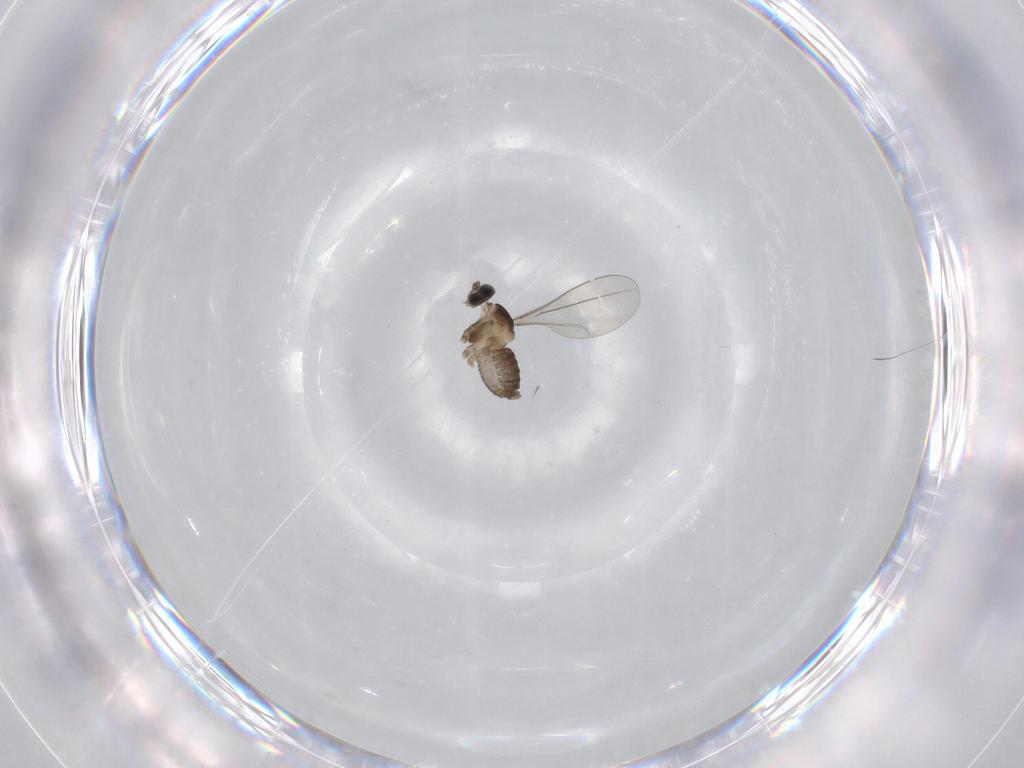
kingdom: Animalia
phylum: Arthropoda
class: Insecta
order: Diptera
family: Cecidomyiidae
